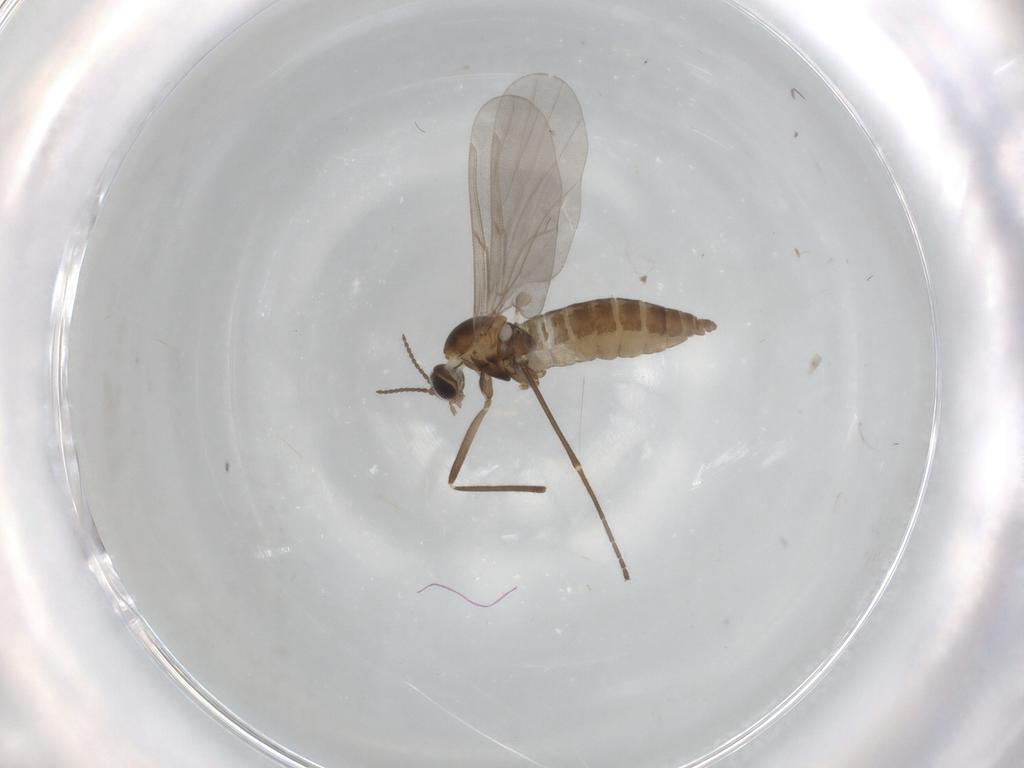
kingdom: Animalia
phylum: Arthropoda
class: Insecta
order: Diptera
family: Cecidomyiidae
